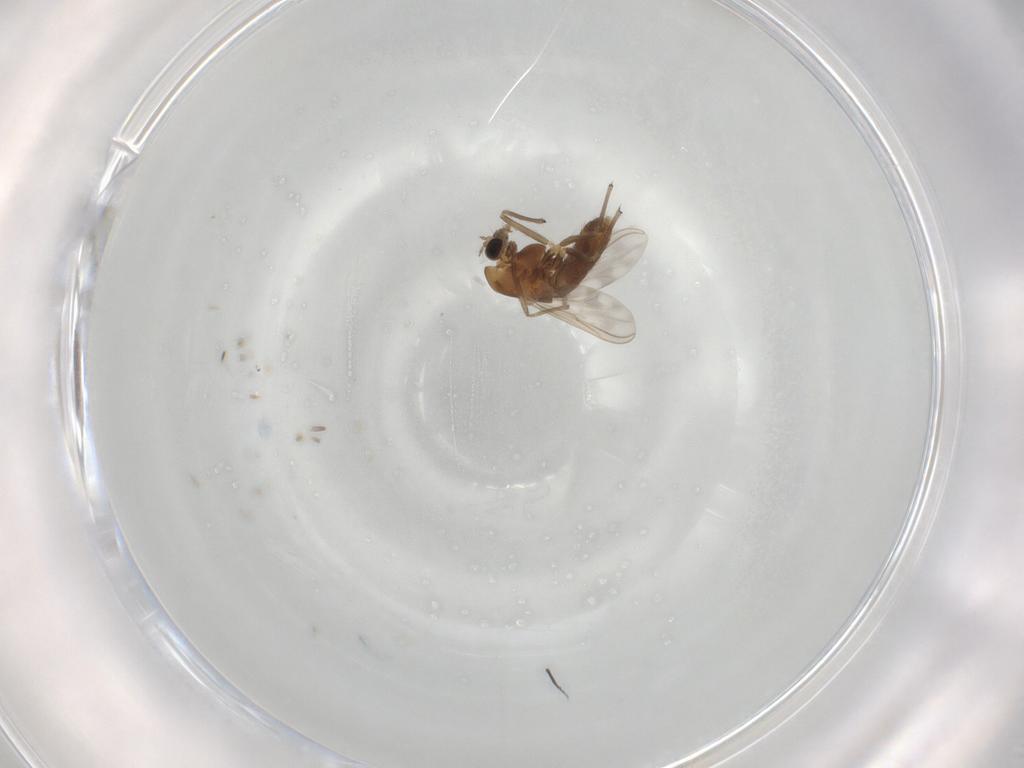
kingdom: Animalia
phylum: Arthropoda
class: Insecta
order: Diptera
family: Chironomidae
